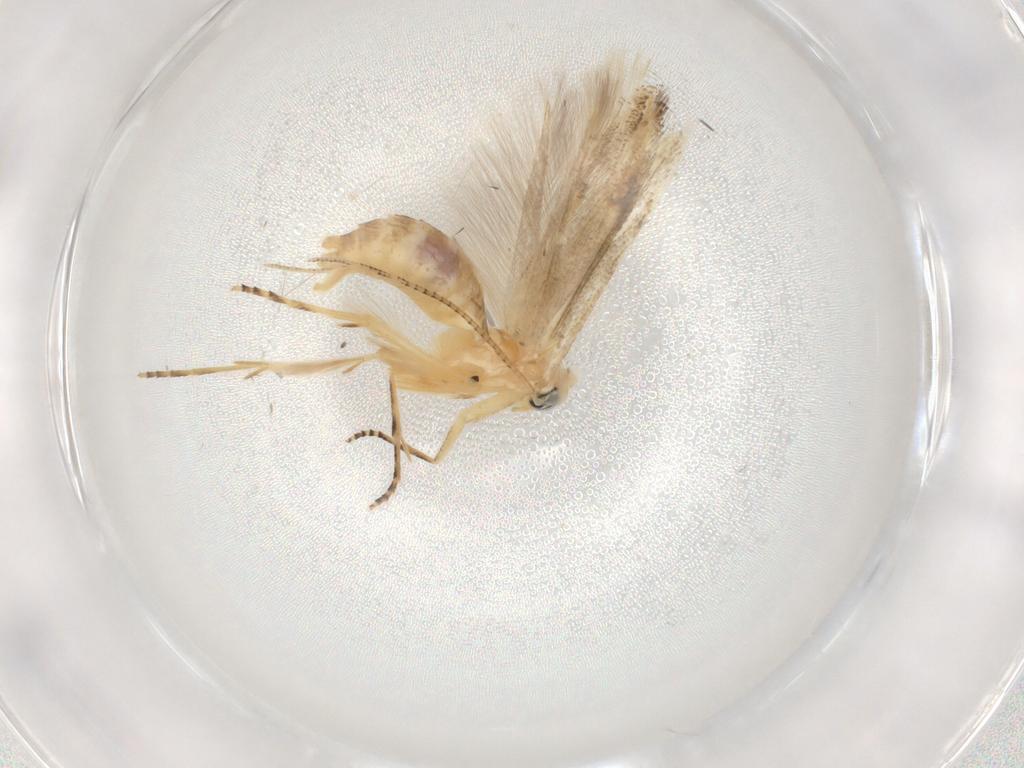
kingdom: Animalia
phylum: Arthropoda
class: Insecta
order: Lepidoptera
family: Bucculatricidae
